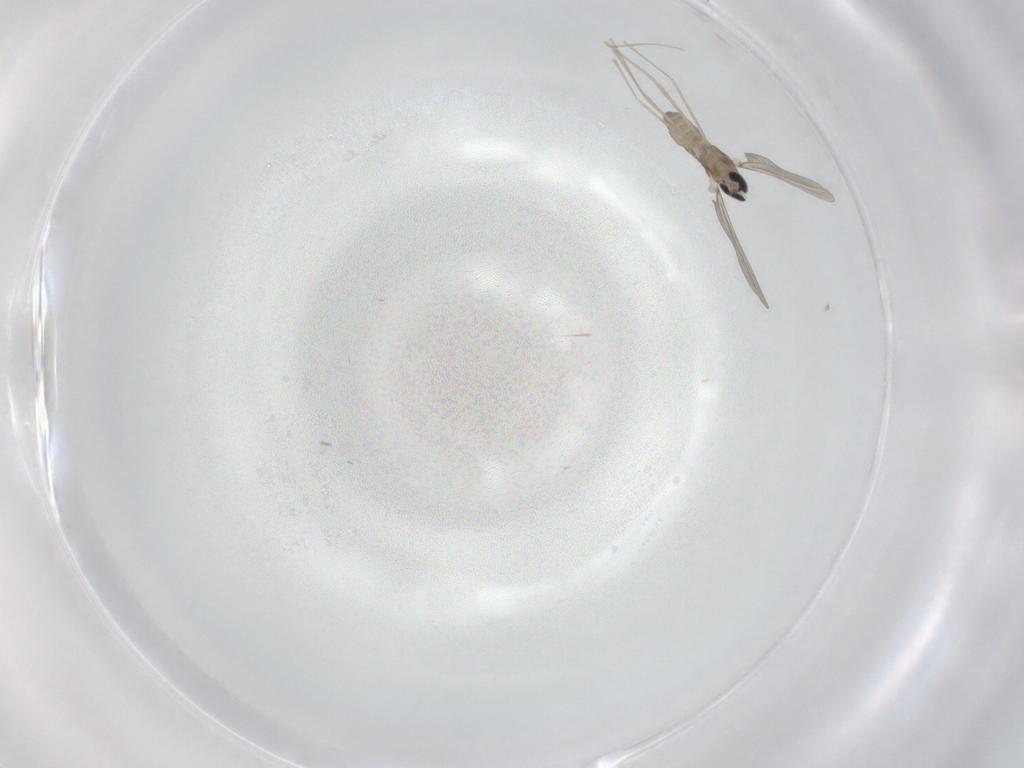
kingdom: Animalia
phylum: Arthropoda
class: Insecta
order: Diptera
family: Cecidomyiidae
